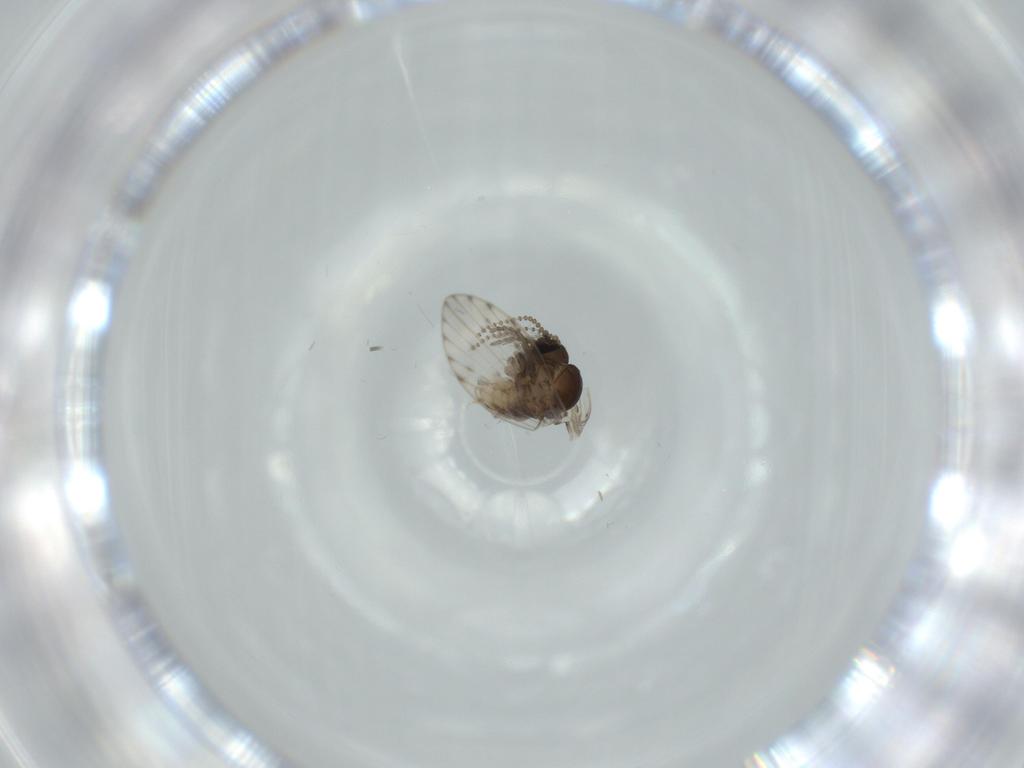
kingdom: Animalia
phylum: Arthropoda
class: Insecta
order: Diptera
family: Psychodidae
